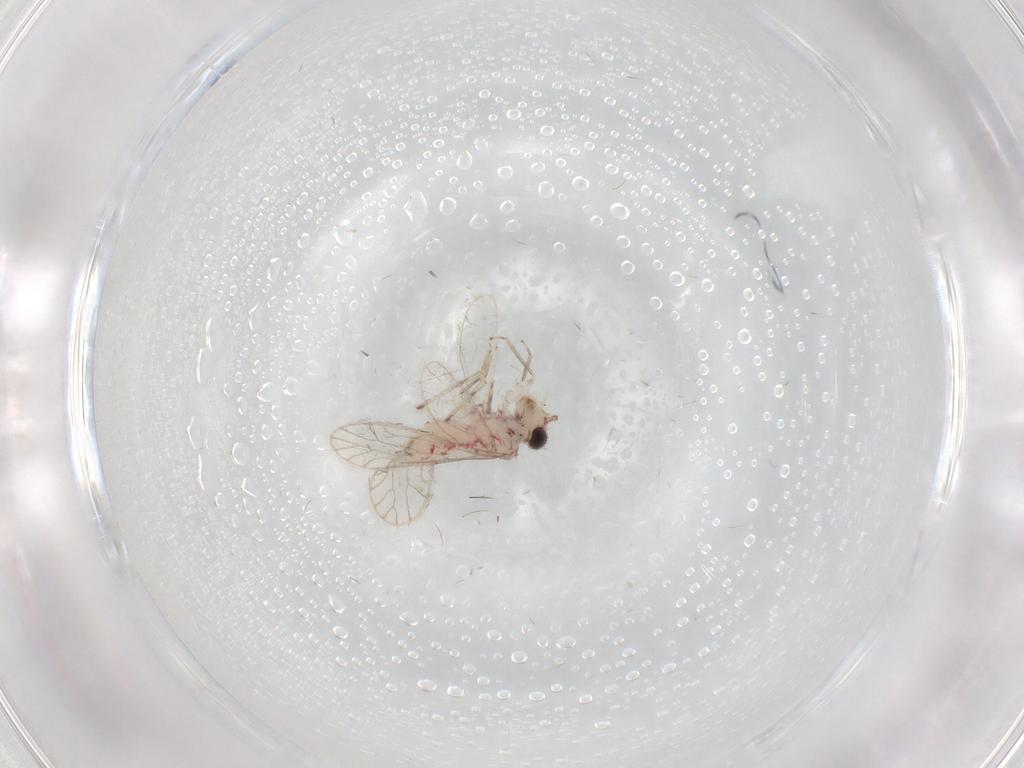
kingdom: Animalia
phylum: Arthropoda
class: Insecta
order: Psocodea
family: Caeciliusidae
